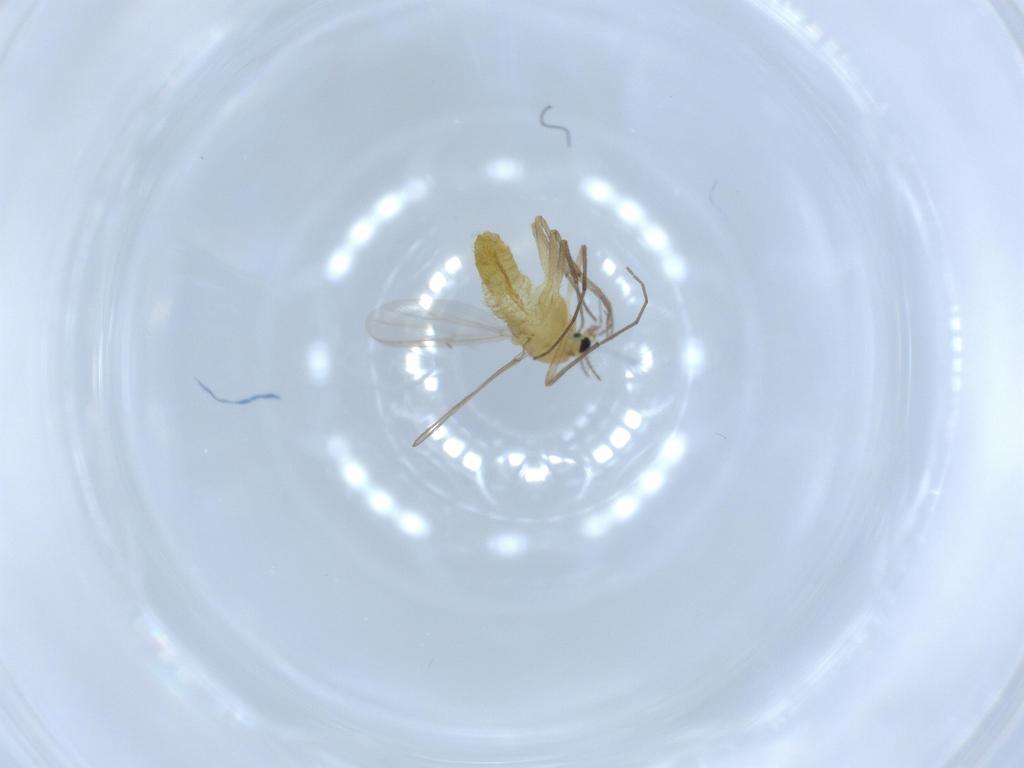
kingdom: Animalia
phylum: Arthropoda
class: Insecta
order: Diptera
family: Chironomidae
